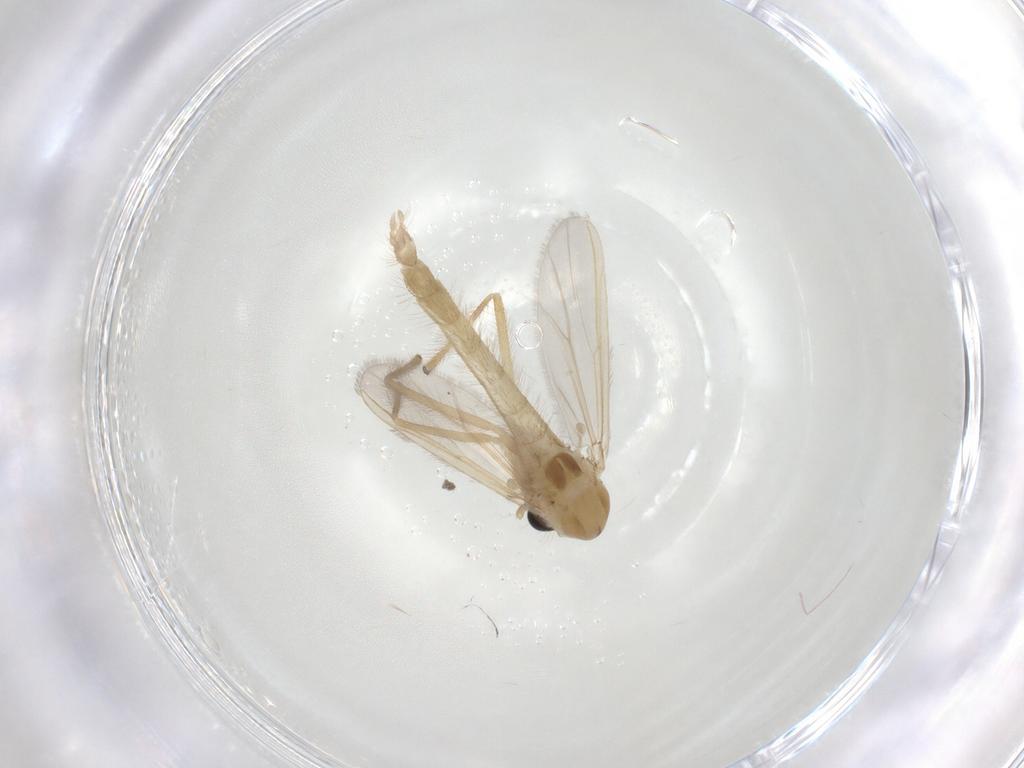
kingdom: Animalia
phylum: Arthropoda
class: Insecta
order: Diptera
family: Chironomidae
